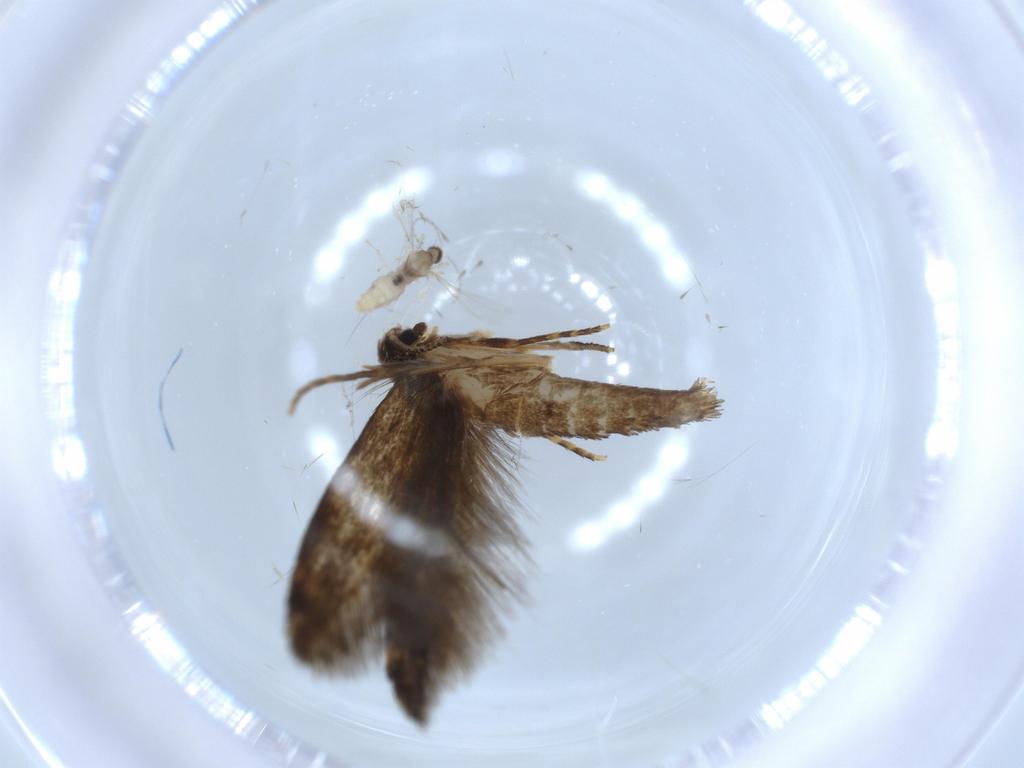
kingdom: Animalia
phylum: Arthropoda
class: Insecta
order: Lepidoptera
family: Tineidae
